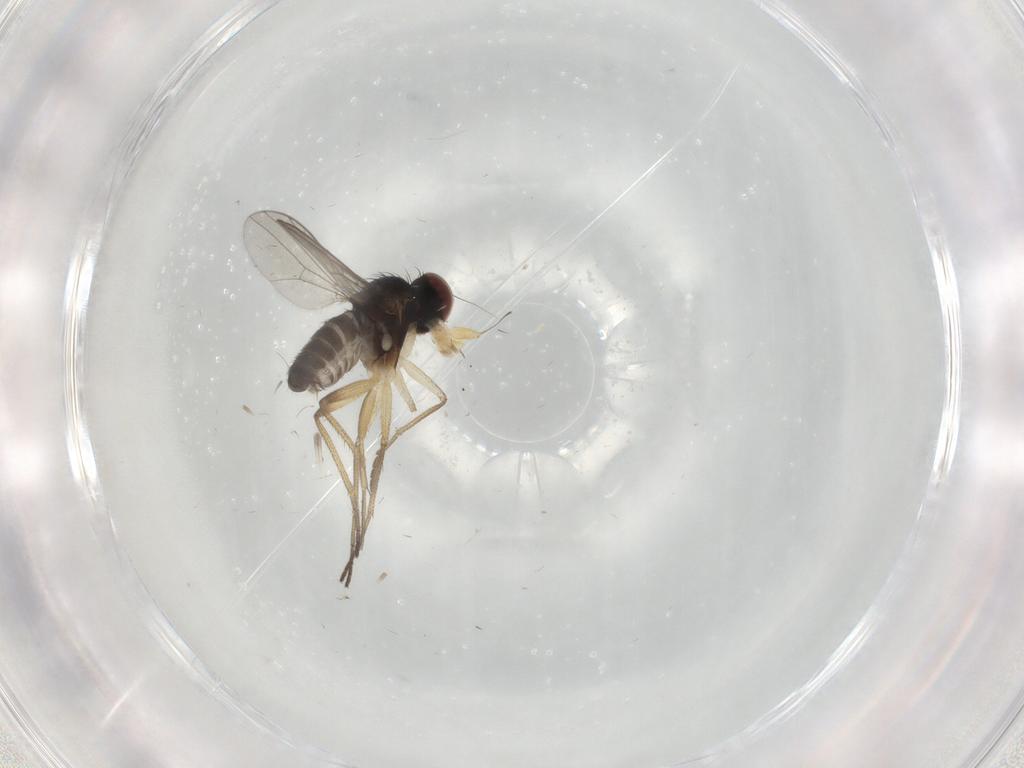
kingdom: Animalia
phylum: Arthropoda
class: Insecta
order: Diptera
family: Dolichopodidae
